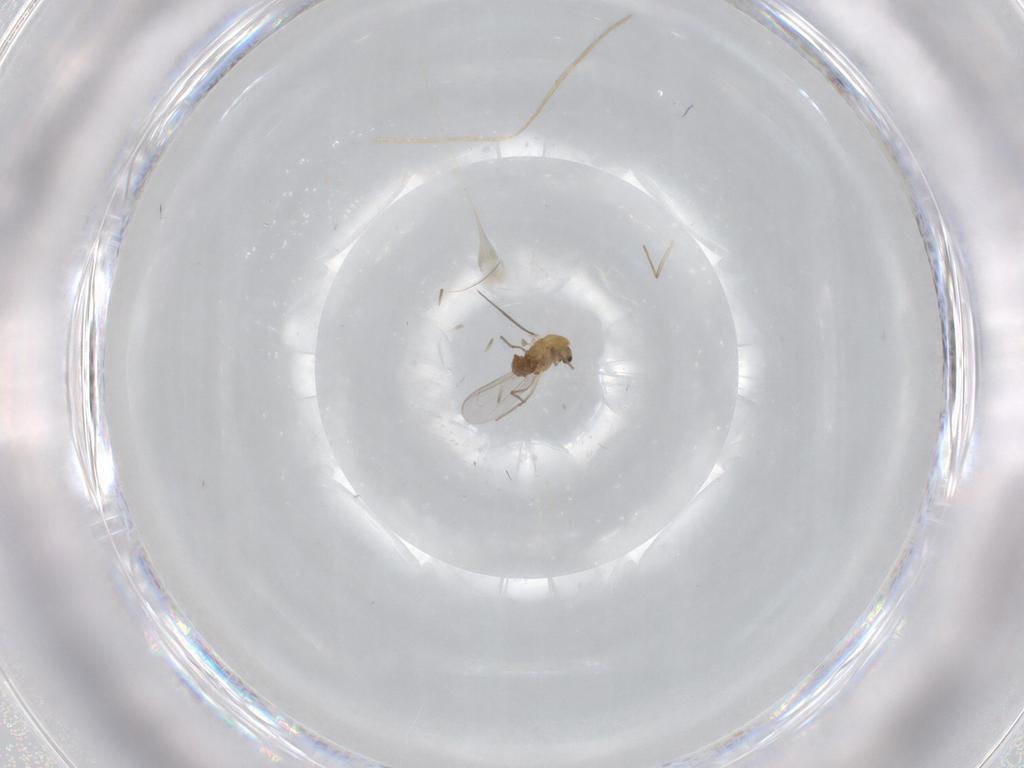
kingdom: Animalia
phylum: Arthropoda
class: Insecta
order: Diptera
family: Chironomidae
